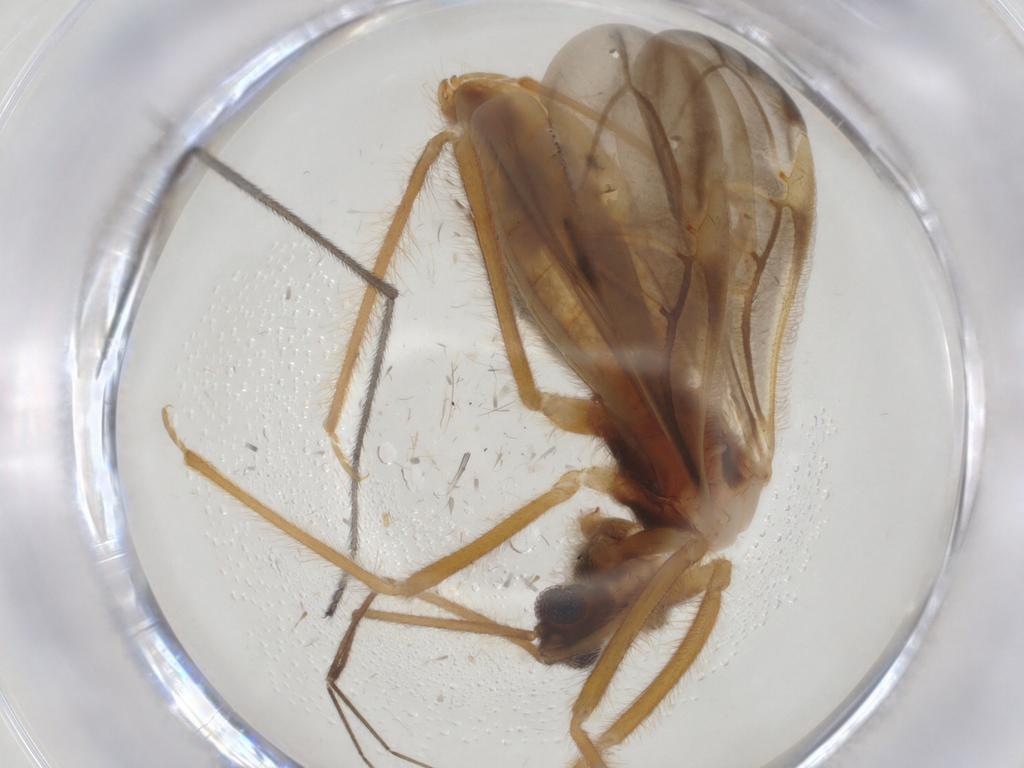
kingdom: Animalia
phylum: Arthropoda
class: Insecta
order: Hemiptera
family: Reduviidae
